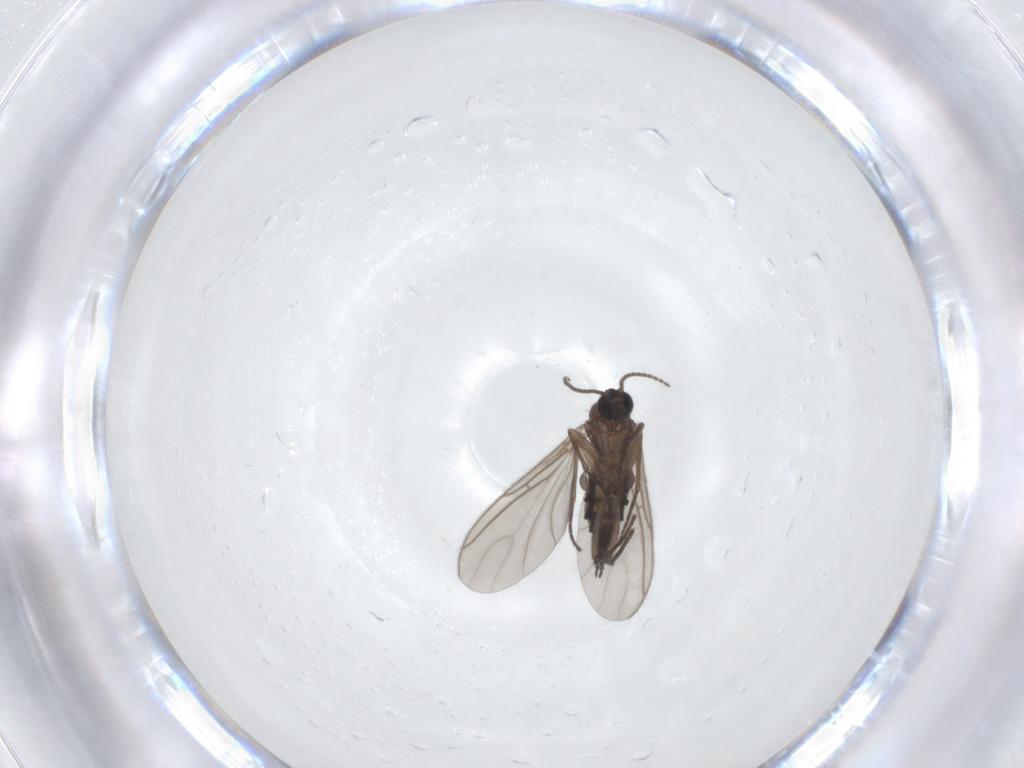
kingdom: Animalia
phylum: Arthropoda
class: Insecta
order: Diptera
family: Sciaridae
